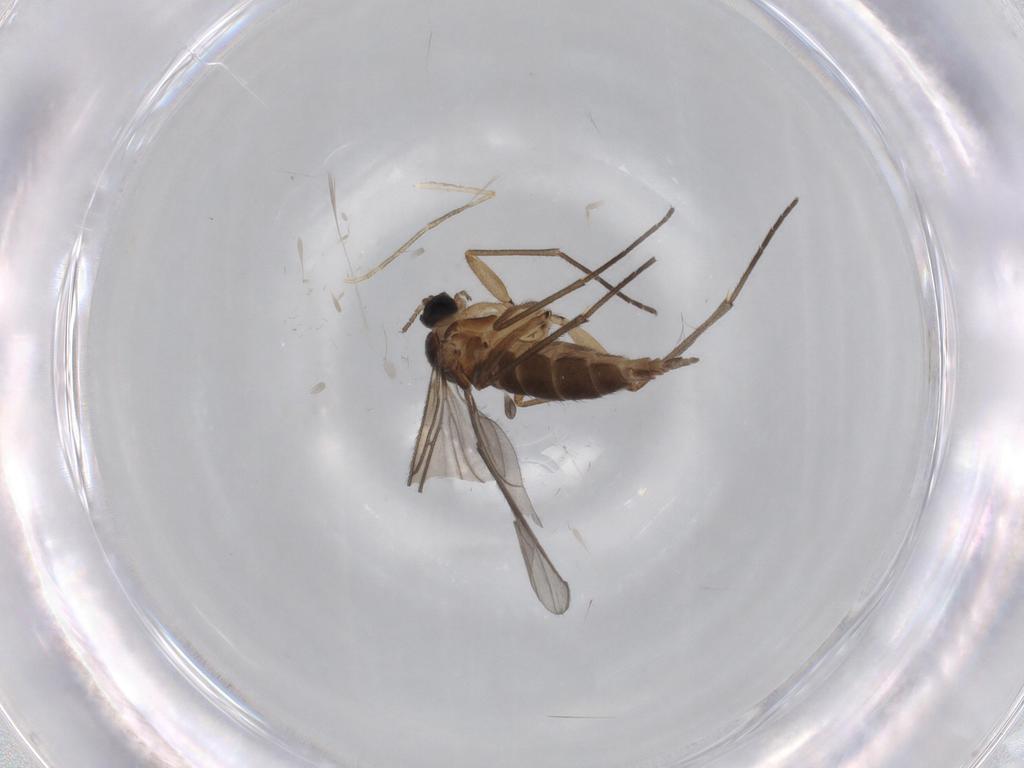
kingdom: Animalia
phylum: Arthropoda
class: Insecta
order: Diptera
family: Sciaridae
